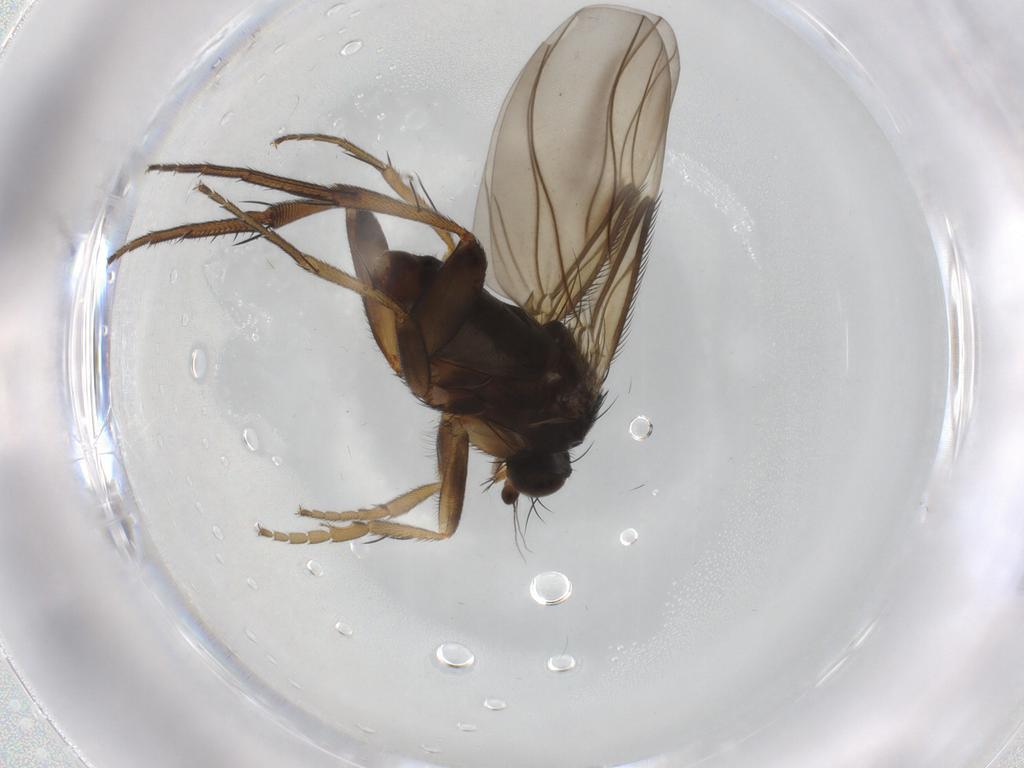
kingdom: Animalia
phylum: Arthropoda
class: Insecta
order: Diptera
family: Phoridae
